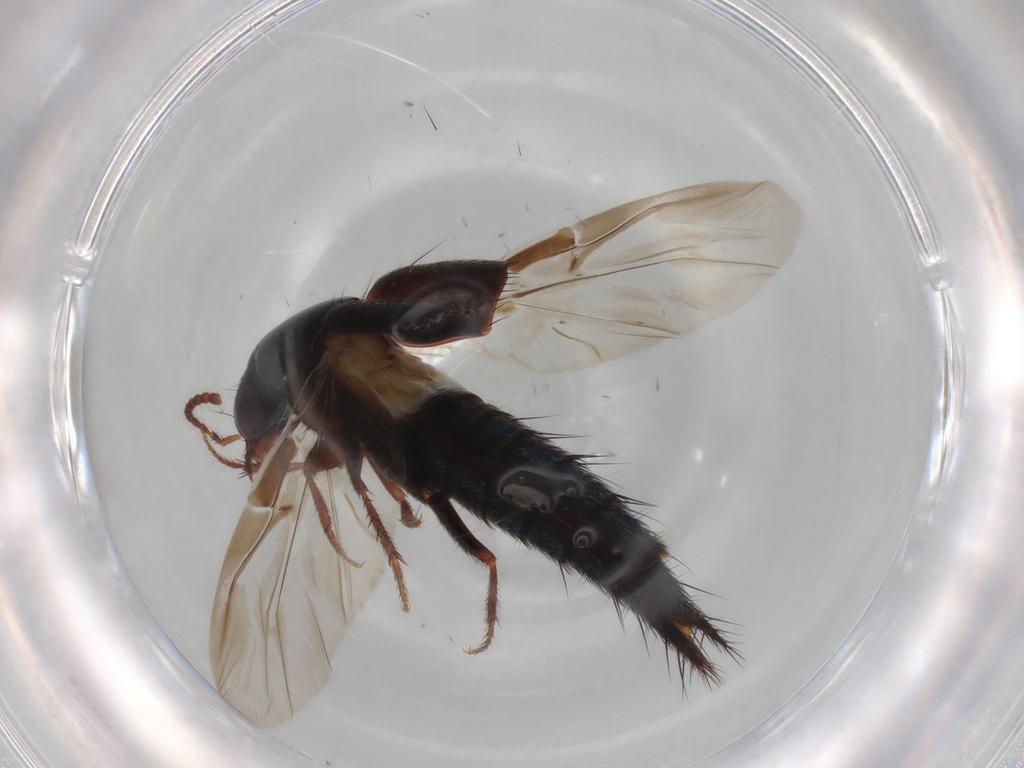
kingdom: Animalia
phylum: Arthropoda
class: Insecta
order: Coleoptera
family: Staphylinidae
